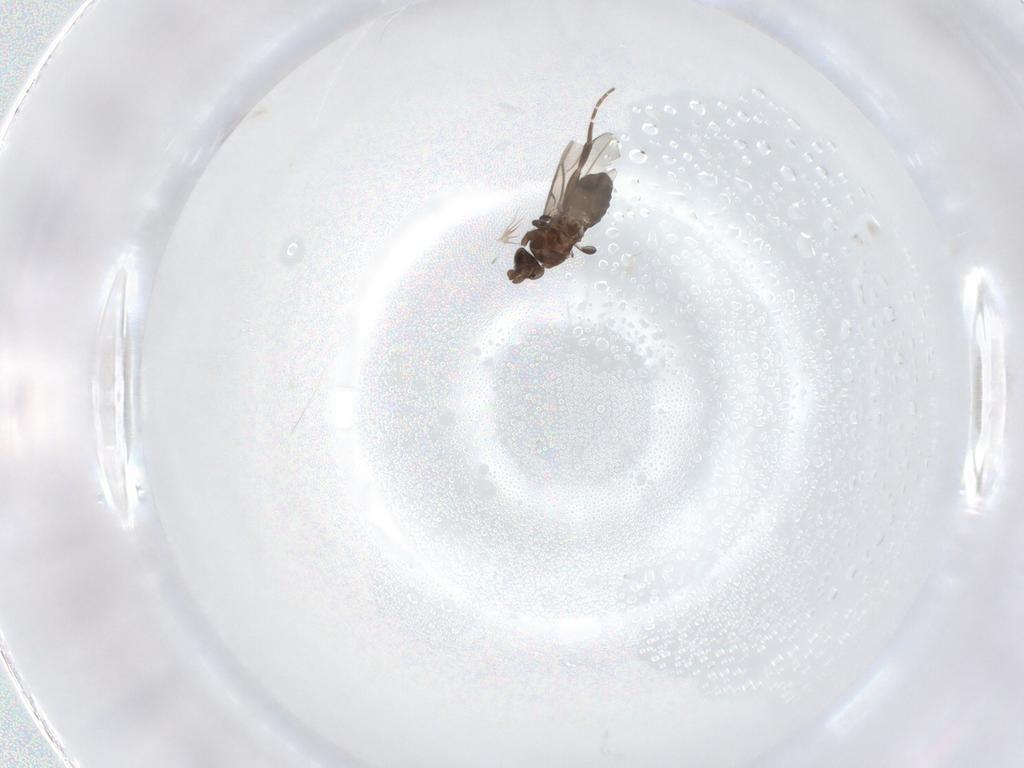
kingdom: Animalia
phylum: Arthropoda
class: Insecta
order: Diptera
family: Phoridae
